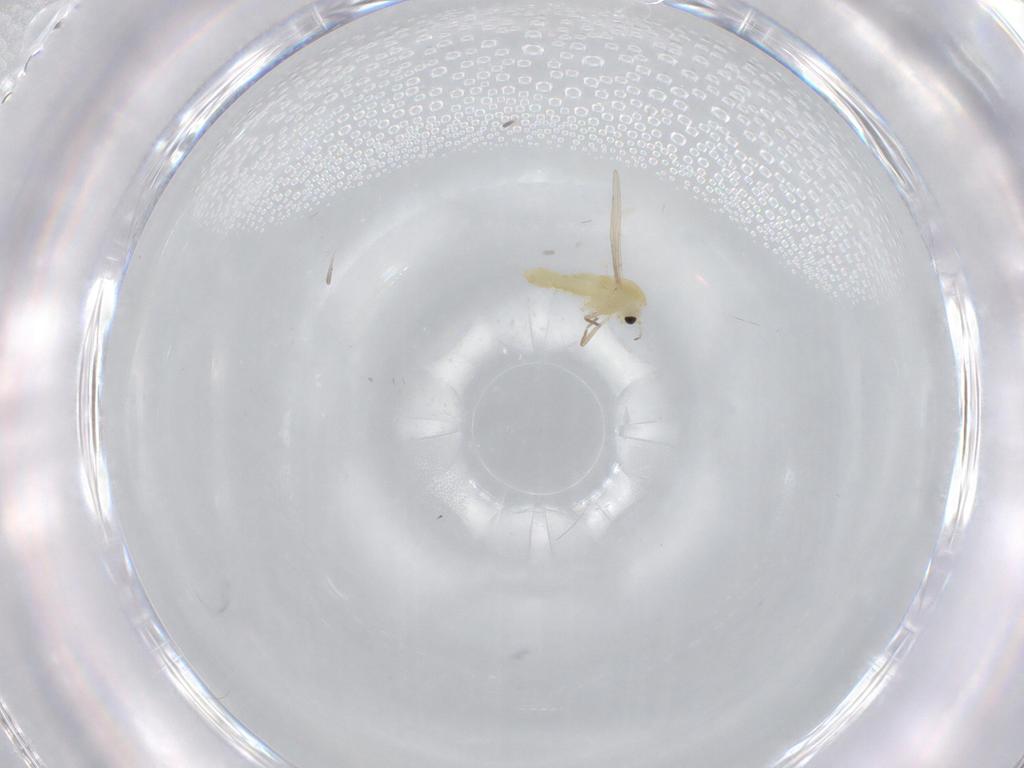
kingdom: Animalia
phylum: Arthropoda
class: Insecta
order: Diptera
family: Chironomidae
